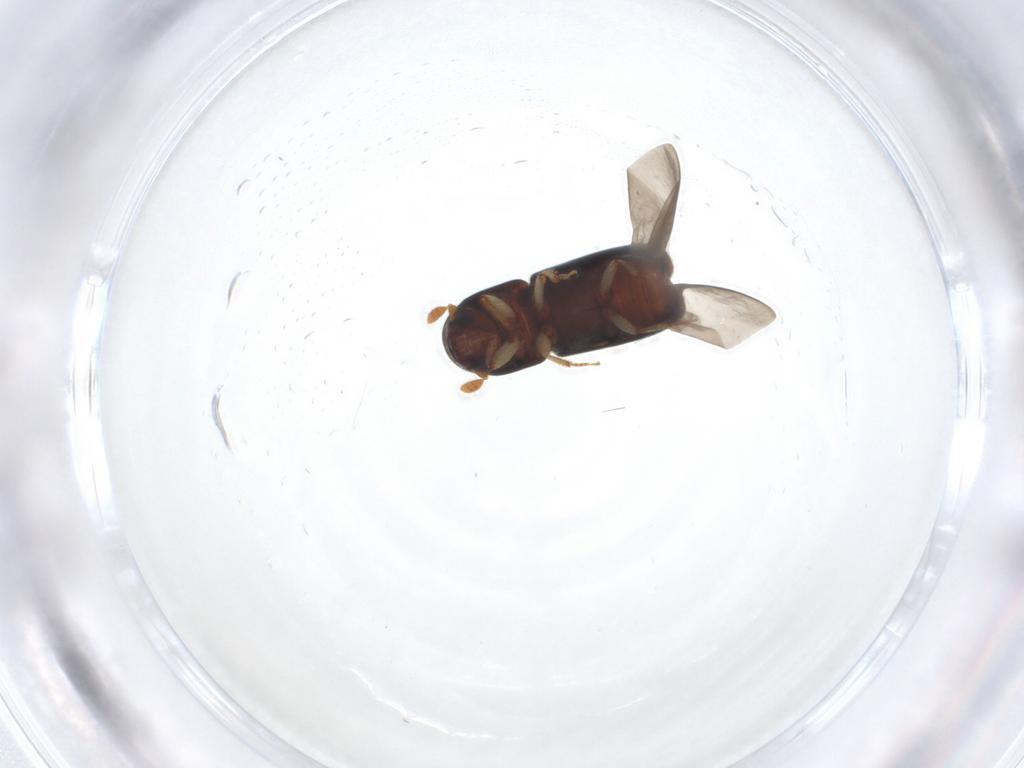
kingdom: Animalia
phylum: Arthropoda
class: Insecta
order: Coleoptera
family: Curculionidae
